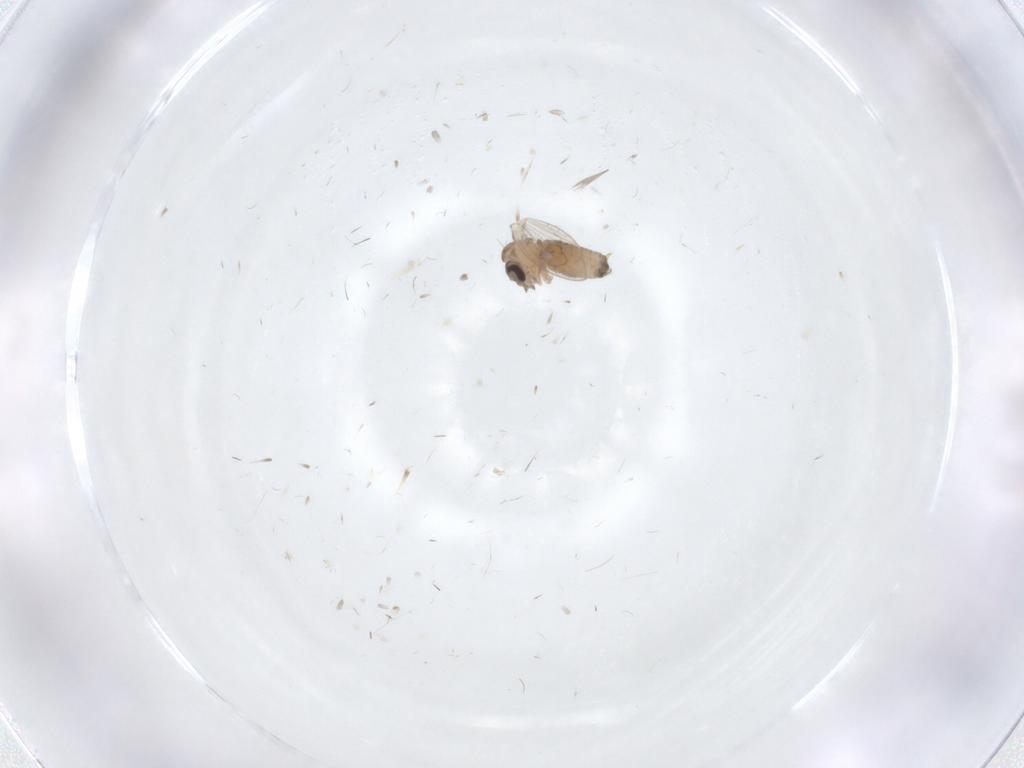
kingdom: Animalia
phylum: Arthropoda
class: Insecta
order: Diptera
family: Psychodidae
